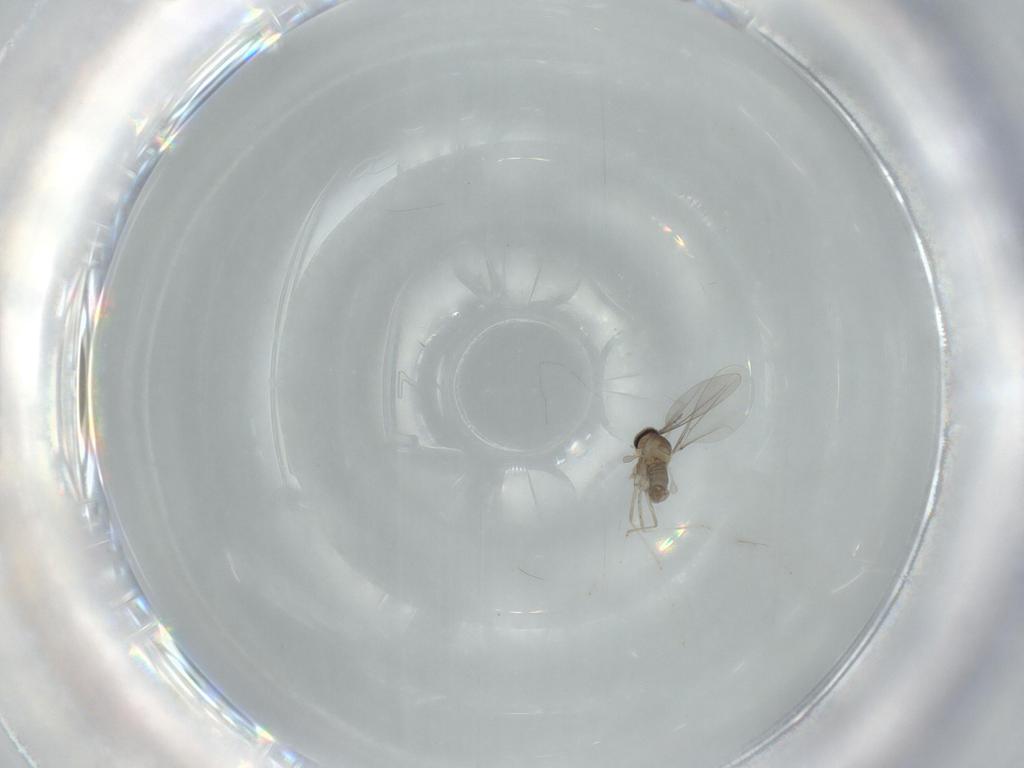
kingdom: Animalia
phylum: Arthropoda
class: Insecta
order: Diptera
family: Cecidomyiidae
